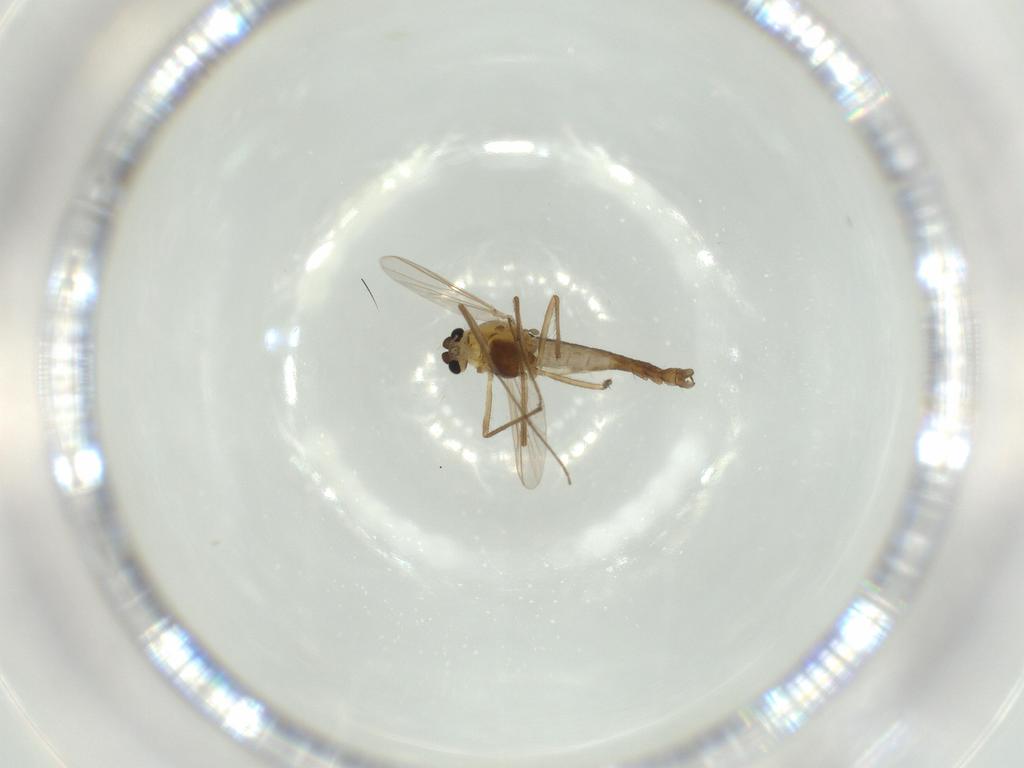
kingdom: Animalia
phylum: Arthropoda
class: Insecta
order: Diptera
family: Chironomidae
